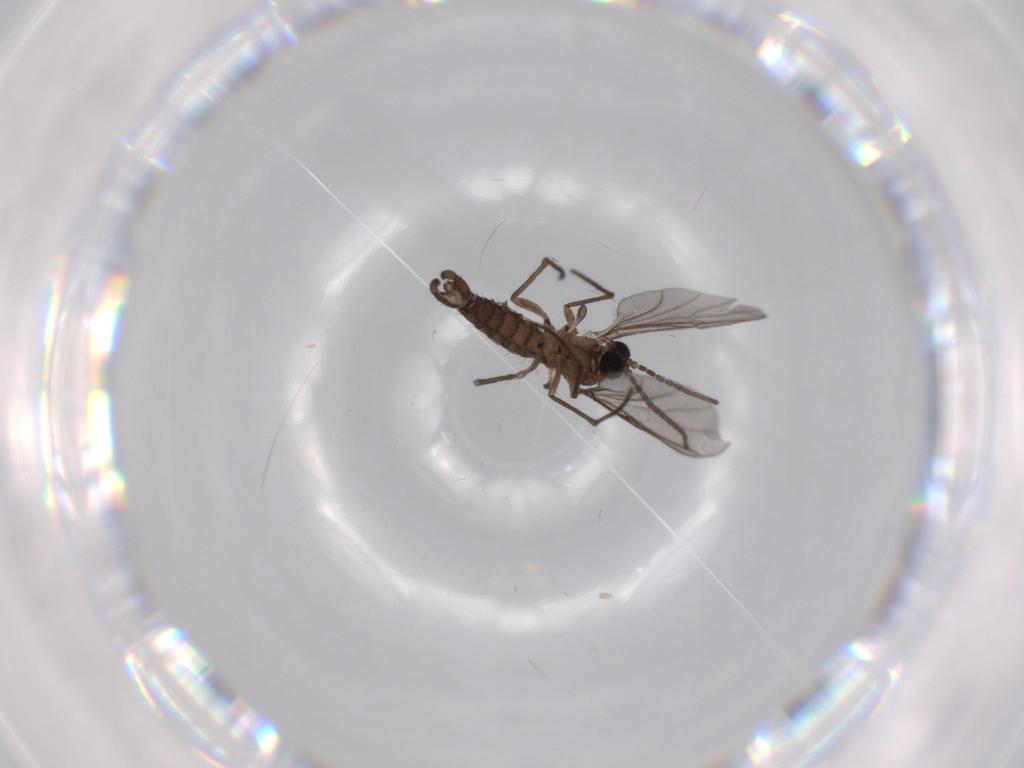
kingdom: Animalia
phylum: Arthropoda
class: Insecta
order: Diptera
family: Sciaridae
